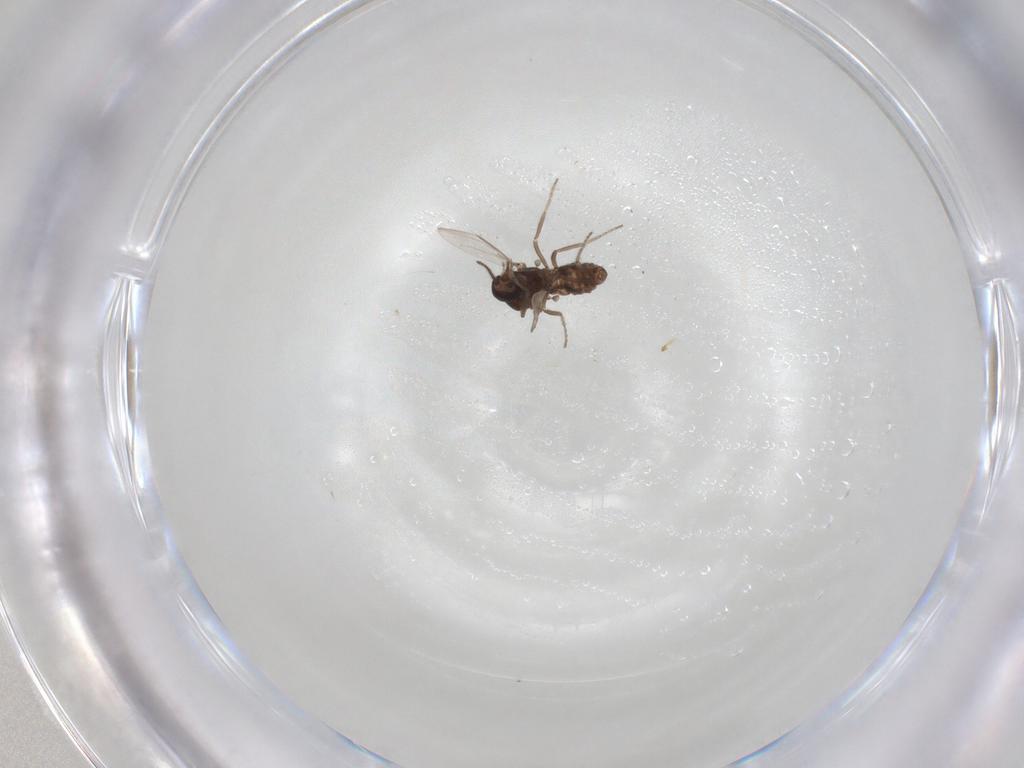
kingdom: Animalia
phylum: Arthropoda
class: Insecta
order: Diptera
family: Ceratopogonidae
